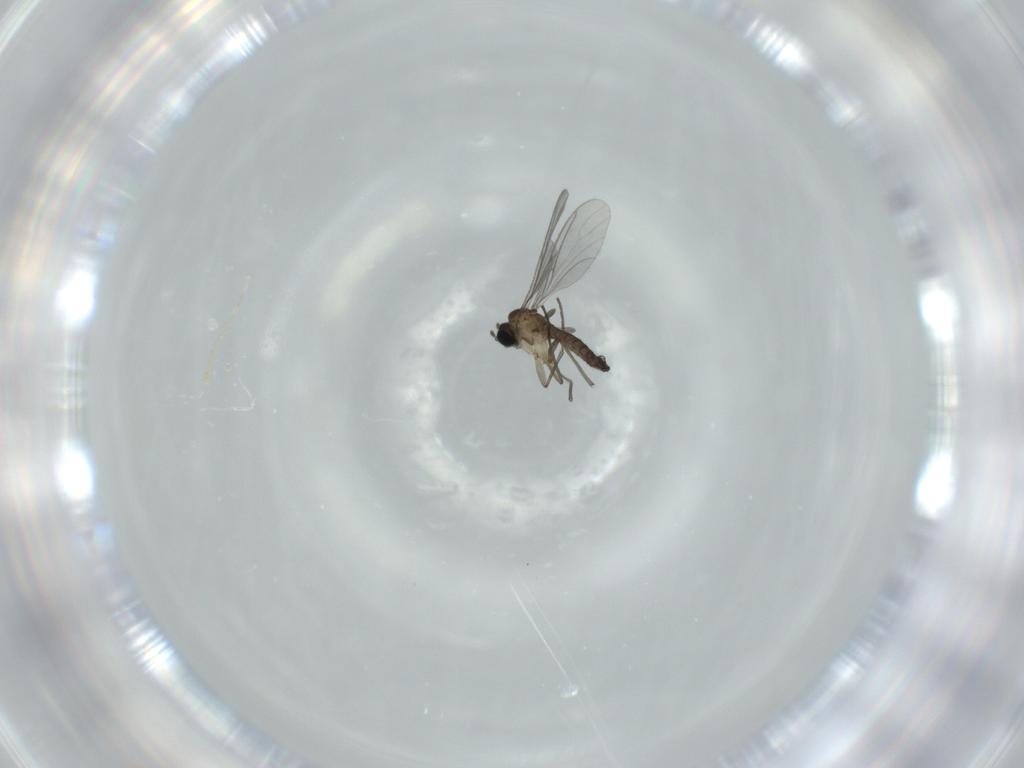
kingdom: Animalia
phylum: Arthropoda
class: Insecta
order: Diptera
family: Sciaridae
